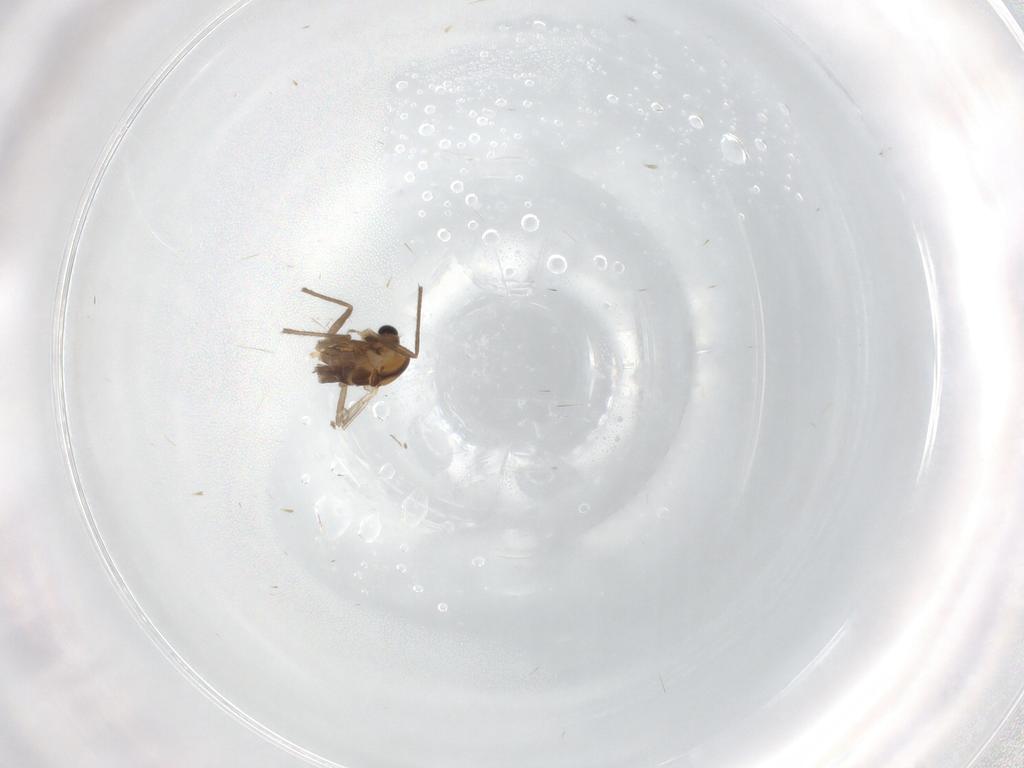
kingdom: Animalia
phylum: Arthropoda
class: Insecta
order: Diptera
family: Chironomidae
